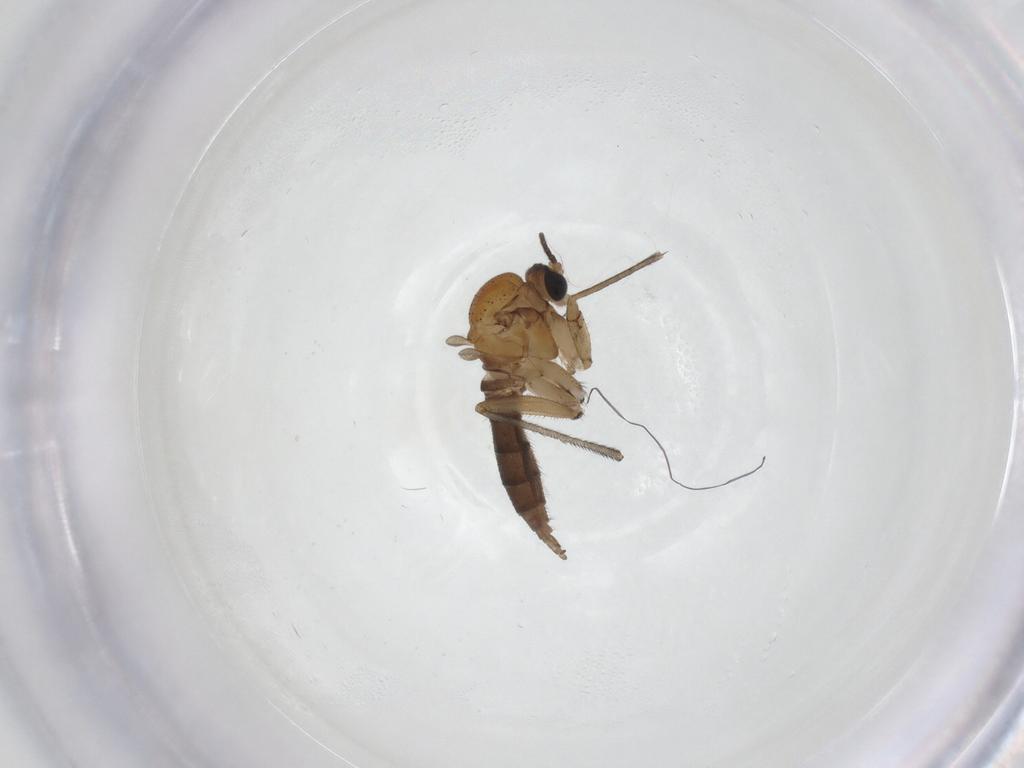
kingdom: Animalia
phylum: Arthropoda
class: Insecta
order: Diptera
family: Sciaridae
